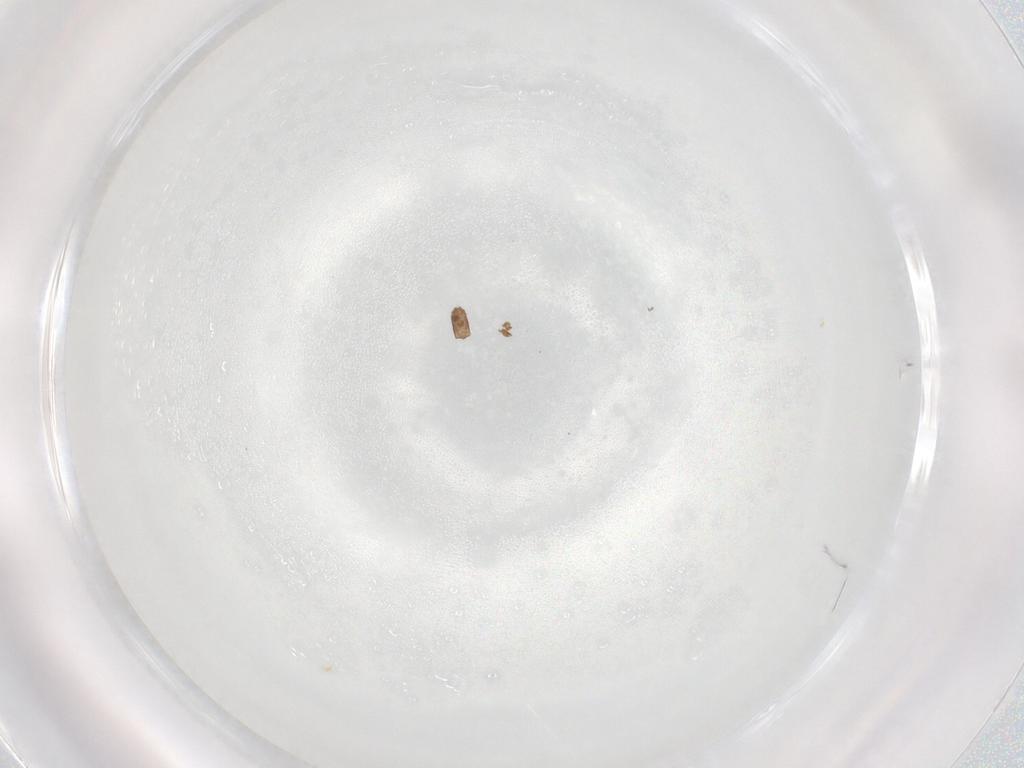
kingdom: Animalia
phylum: Arthropoda
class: Arachnida
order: Trombidiformes
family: Eupodidae
